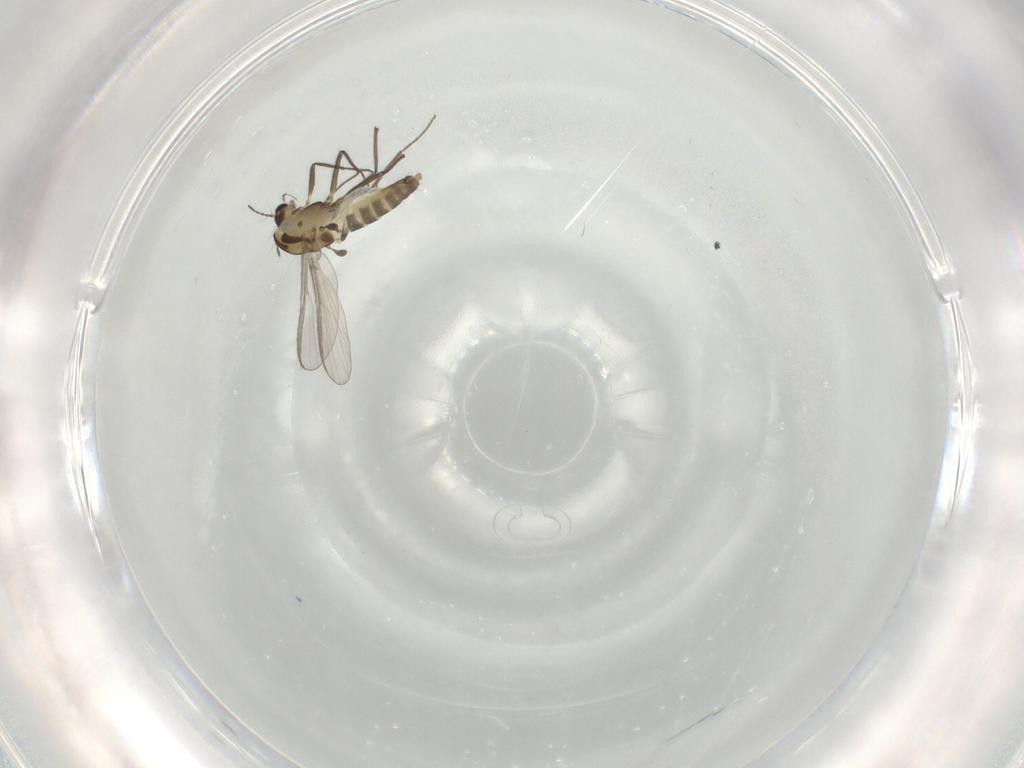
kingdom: Animalia
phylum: Arthropoda
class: Insecta
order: Diptera
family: Chironomidae
